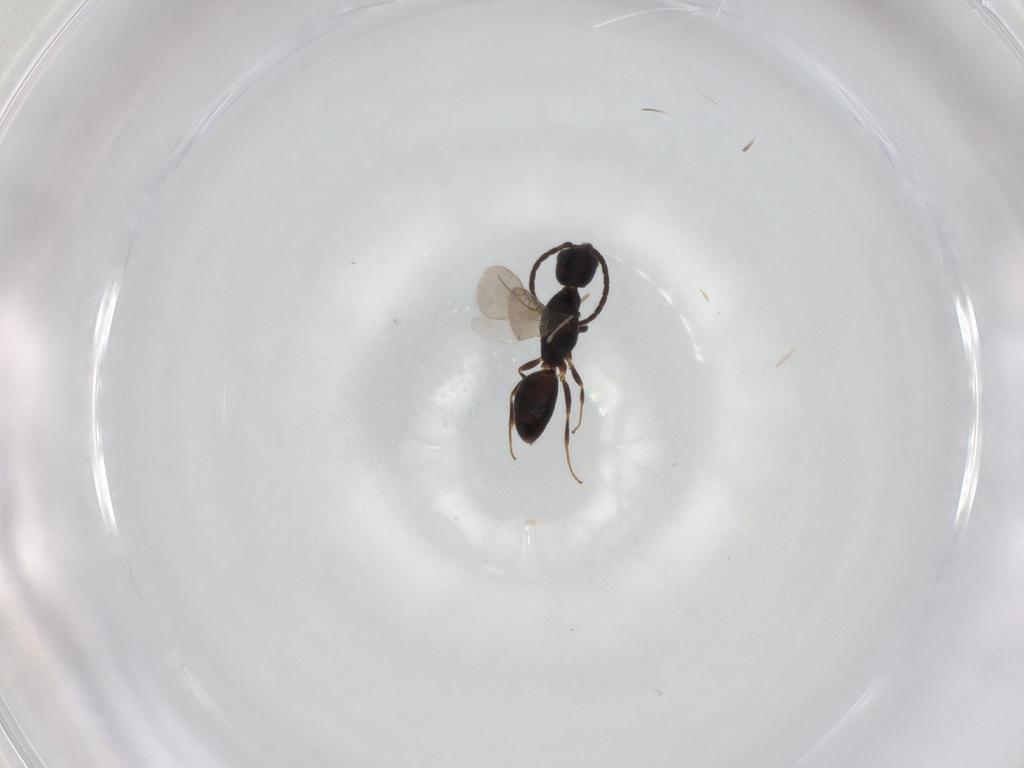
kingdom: Animalia
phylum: Arthropoda
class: Insecta
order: Hymenoptera
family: Bethylidae
